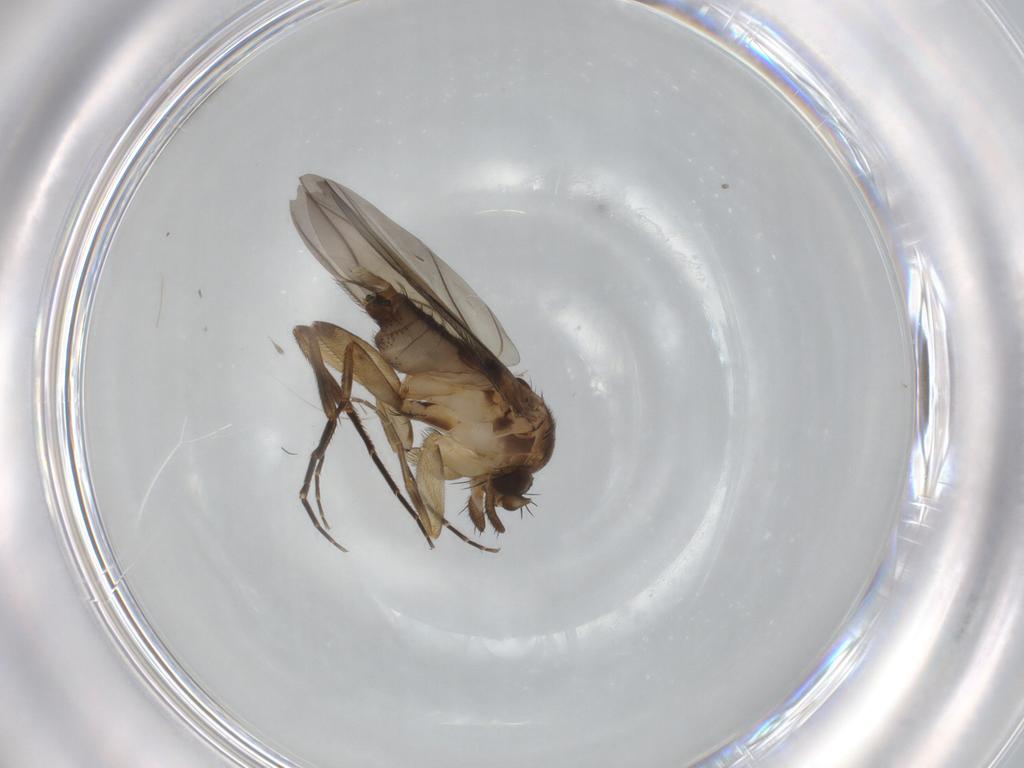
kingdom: Animalia
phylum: Arthropoda
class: Insecta
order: Diptera
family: Phoridae
